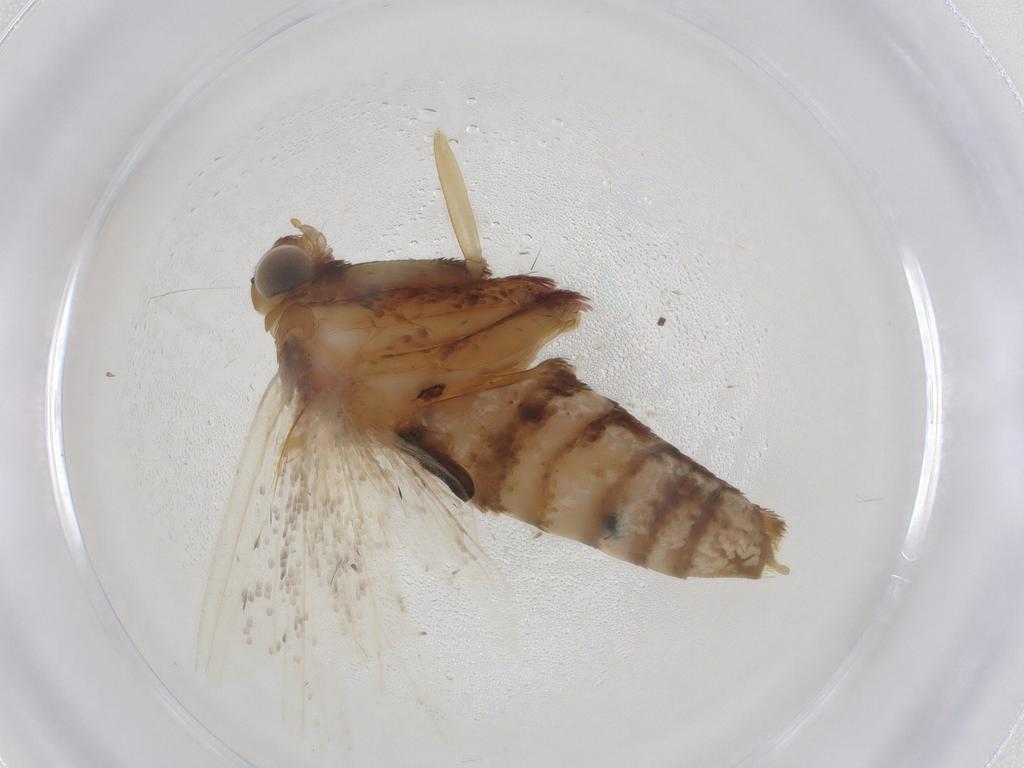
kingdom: Animalia
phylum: Arthropoda
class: Insecta
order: Lepidoptera
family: Pyralidae
